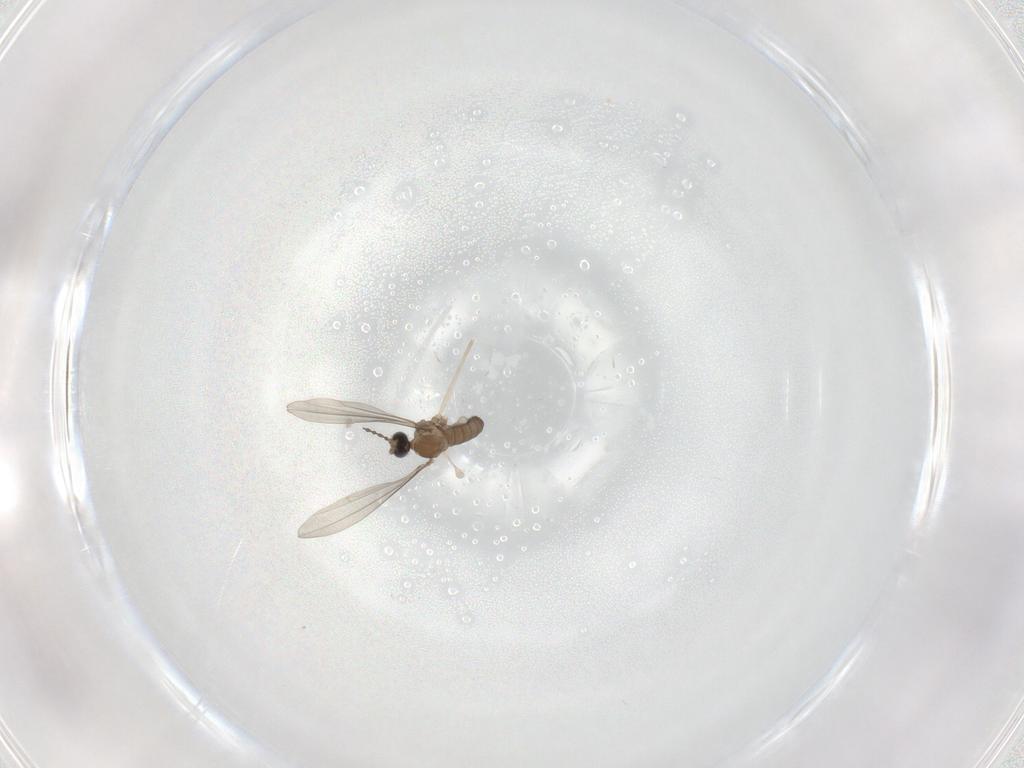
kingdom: Animalia
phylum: Arthropoda
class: Insecta
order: Diptera
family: Cecidomyiidae
